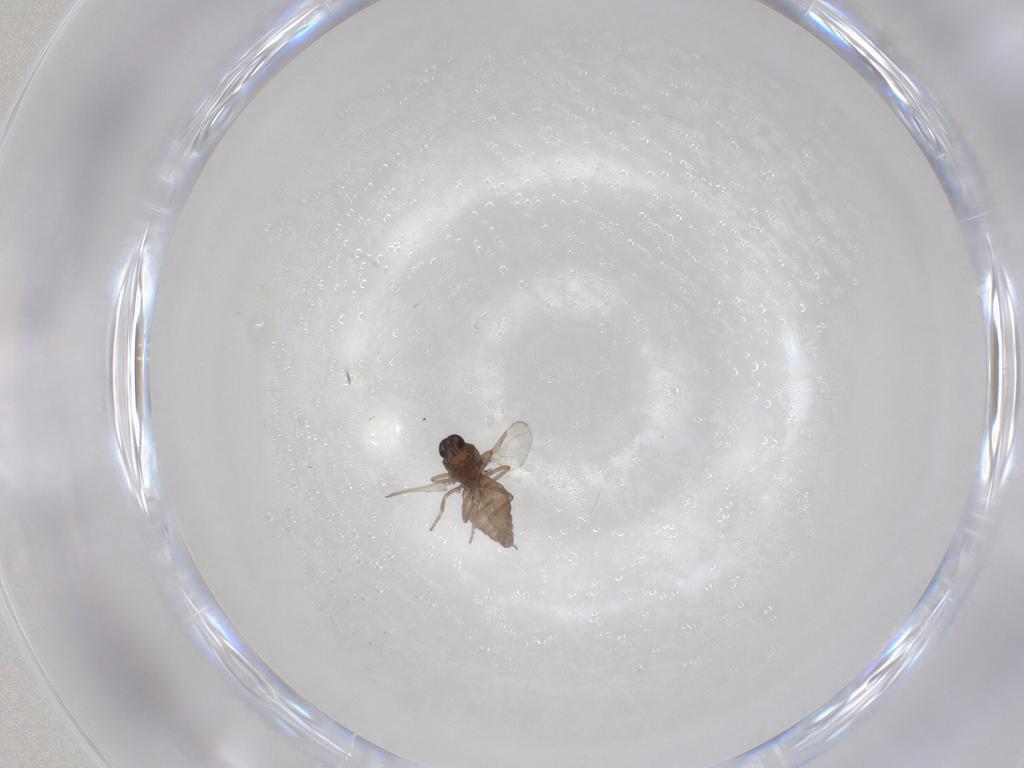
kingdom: Animalia
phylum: Arthropoda
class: Insecta
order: Diptera
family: Ceratopogonidae
